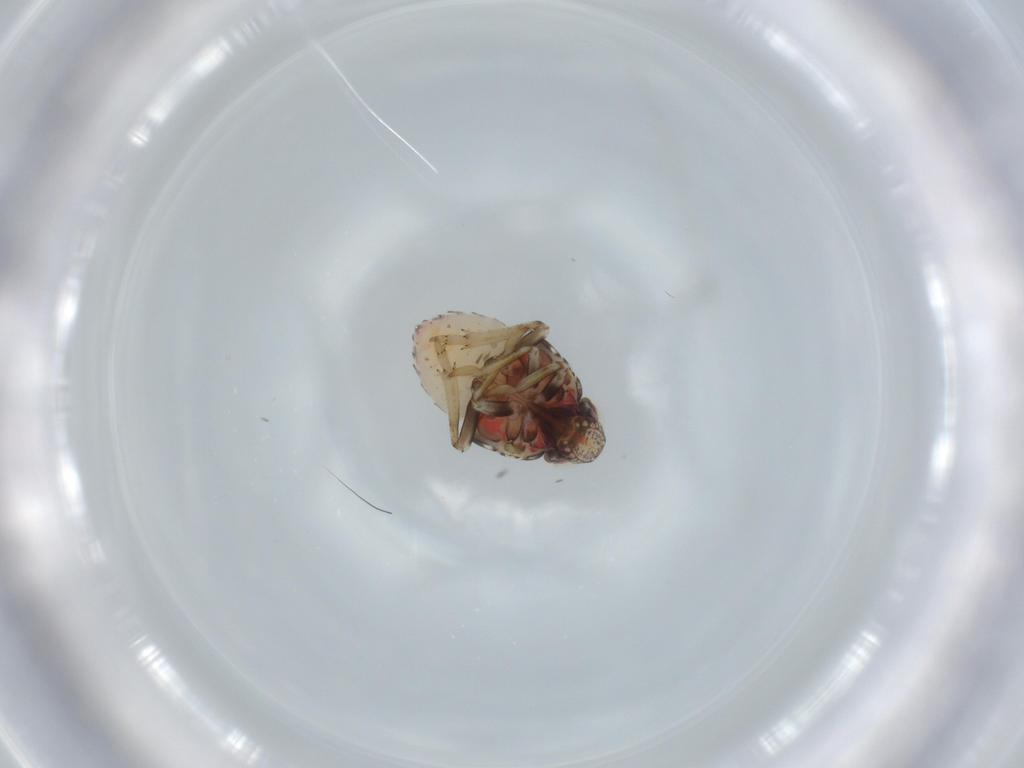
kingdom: Animalia
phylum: Arthropoda
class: Insecta
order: Hemiptera
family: Issidae
